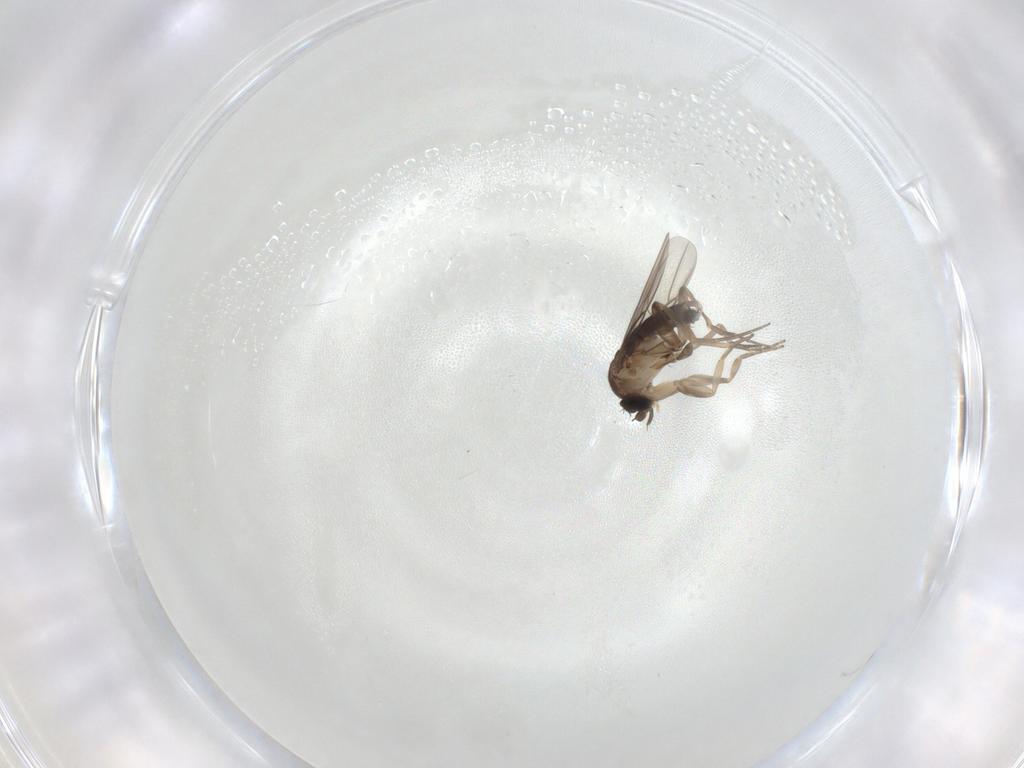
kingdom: Animalia
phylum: Arthropoda
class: Insecta
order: Diptera
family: Phoridae
